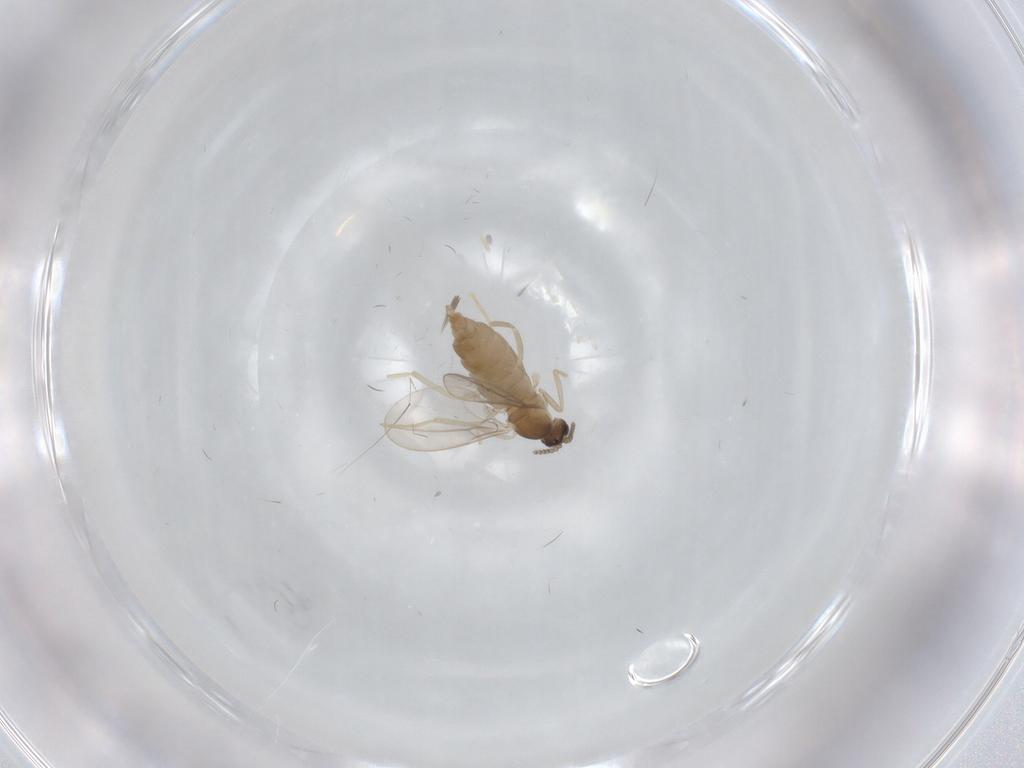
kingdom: Animalia
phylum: Arthropoda
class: Insecta
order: Diptera
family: Cecidomyiidae
